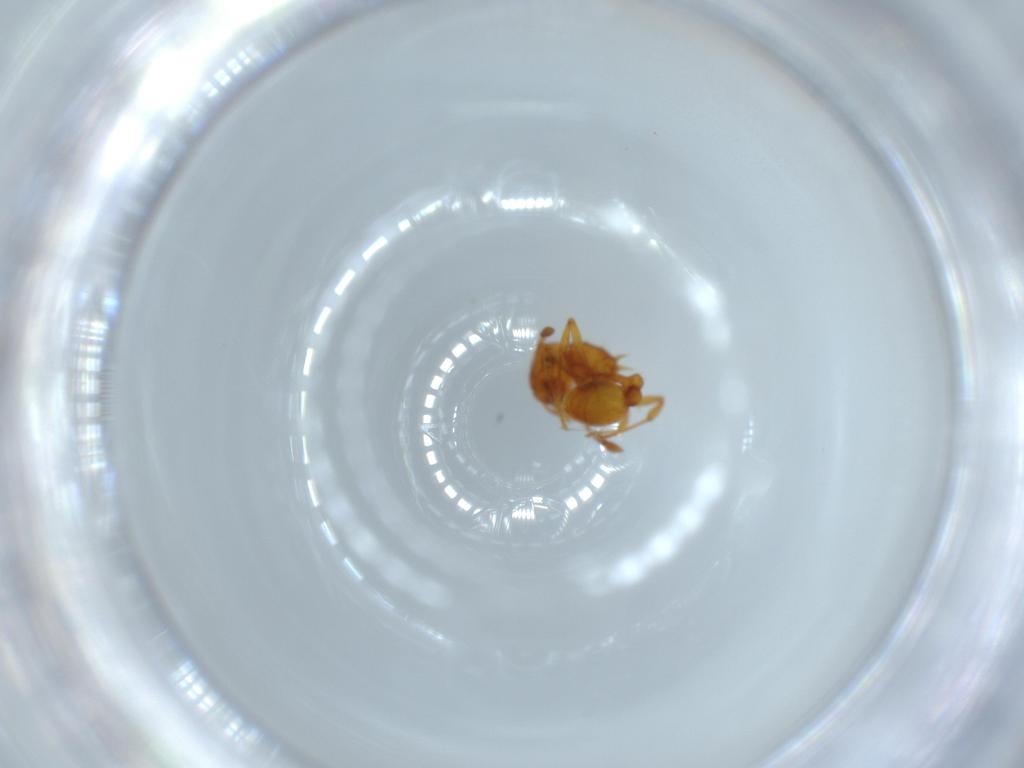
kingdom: Animalia
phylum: Arthropoda
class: Insecta
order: Hymenoptera
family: Formicidae
